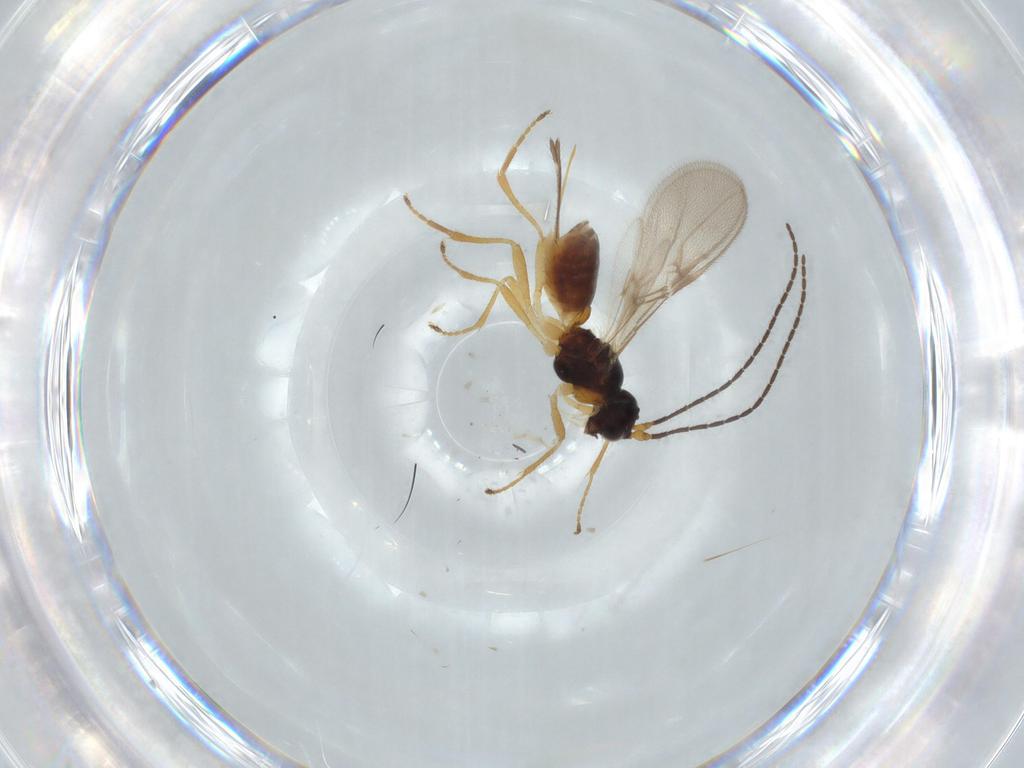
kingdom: Animalia
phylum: Arthropoda
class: Insecta
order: Hymenoptera
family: Braconidae
